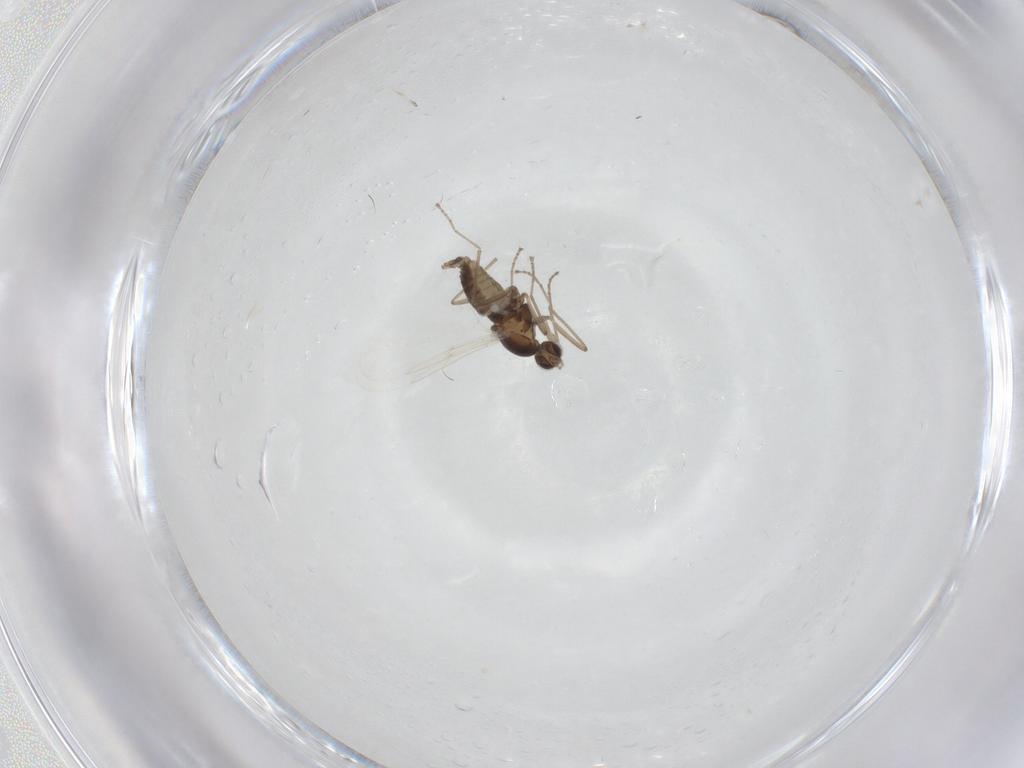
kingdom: Animalia
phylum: Arthropoda
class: Insecta
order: Diptera
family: Cecidomyiidae
